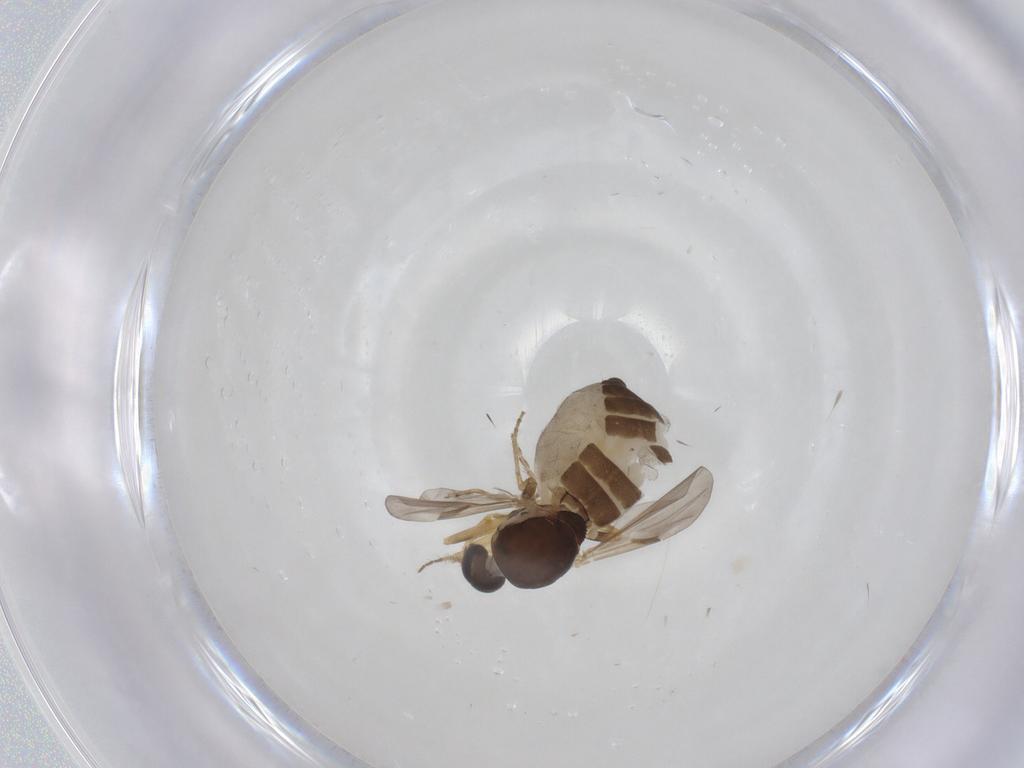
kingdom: Animalia
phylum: Arthropoda
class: Insecta
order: Diptera
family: Ceratopogonidae
